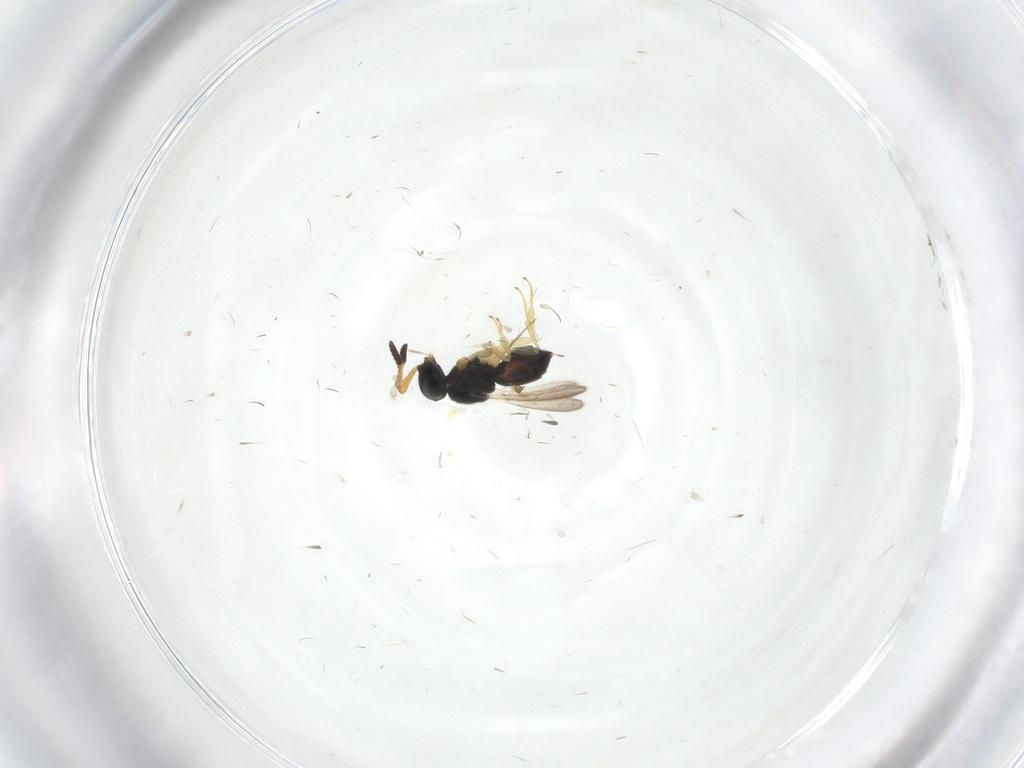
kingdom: Animalia
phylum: Arthropoda
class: Insecta
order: Hymenoptera
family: Scelionidae
